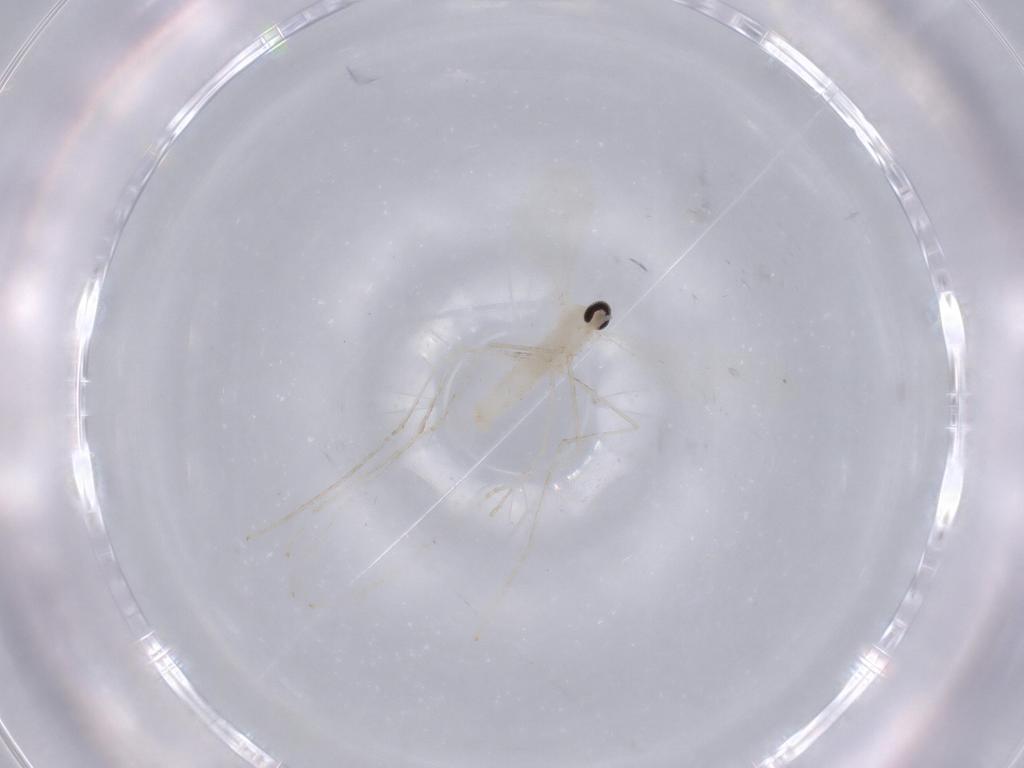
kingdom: Animalia
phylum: Arthropoda
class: Insecta
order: Diptera
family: Cecidomyiidae
